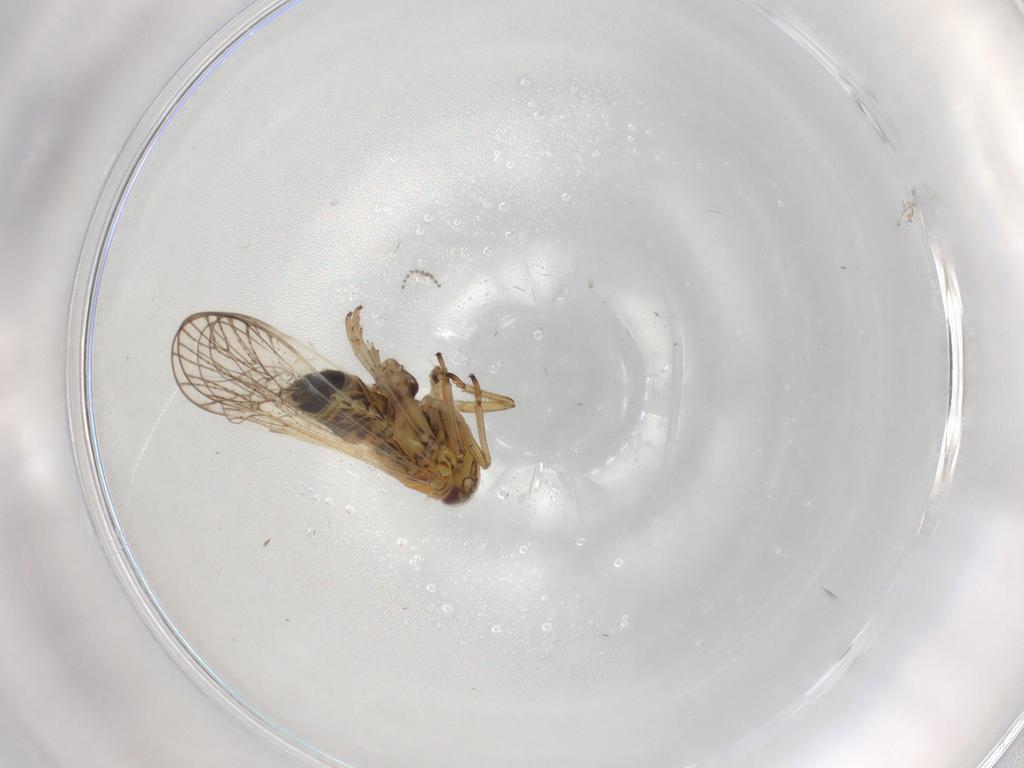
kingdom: Animalia
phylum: Arthropoda
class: Insecta
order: Hemiptera
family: Cicadellidae
